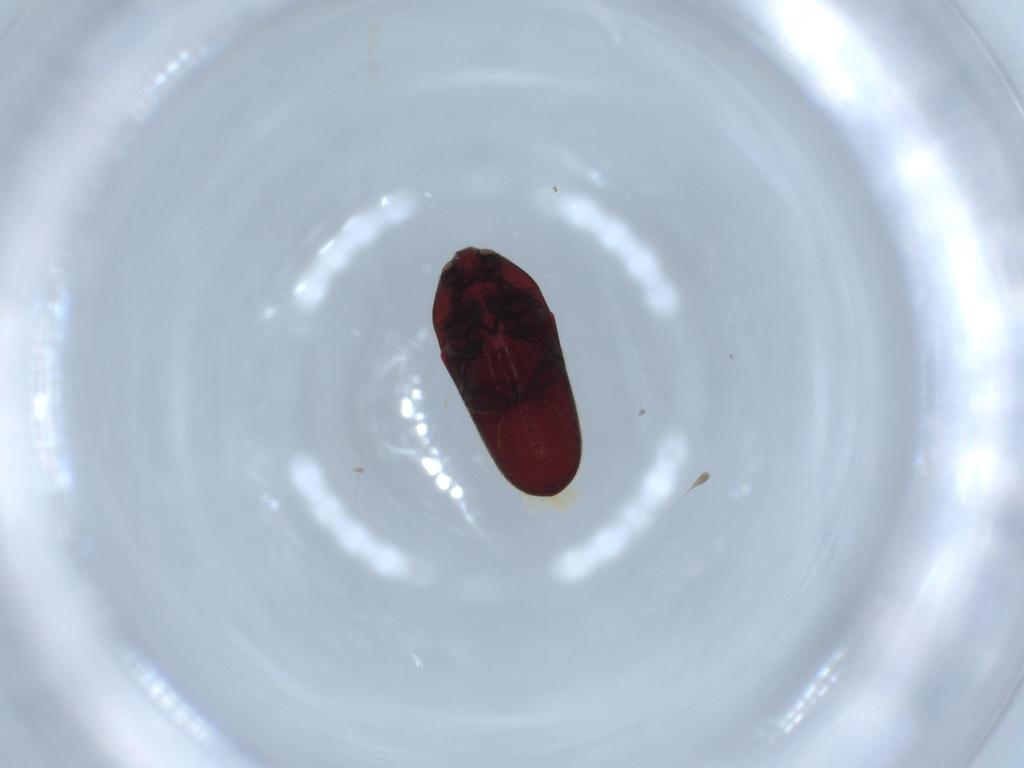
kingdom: Animalia
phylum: Arthropoda
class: Insecta
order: Coleoptera
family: Throscidae
